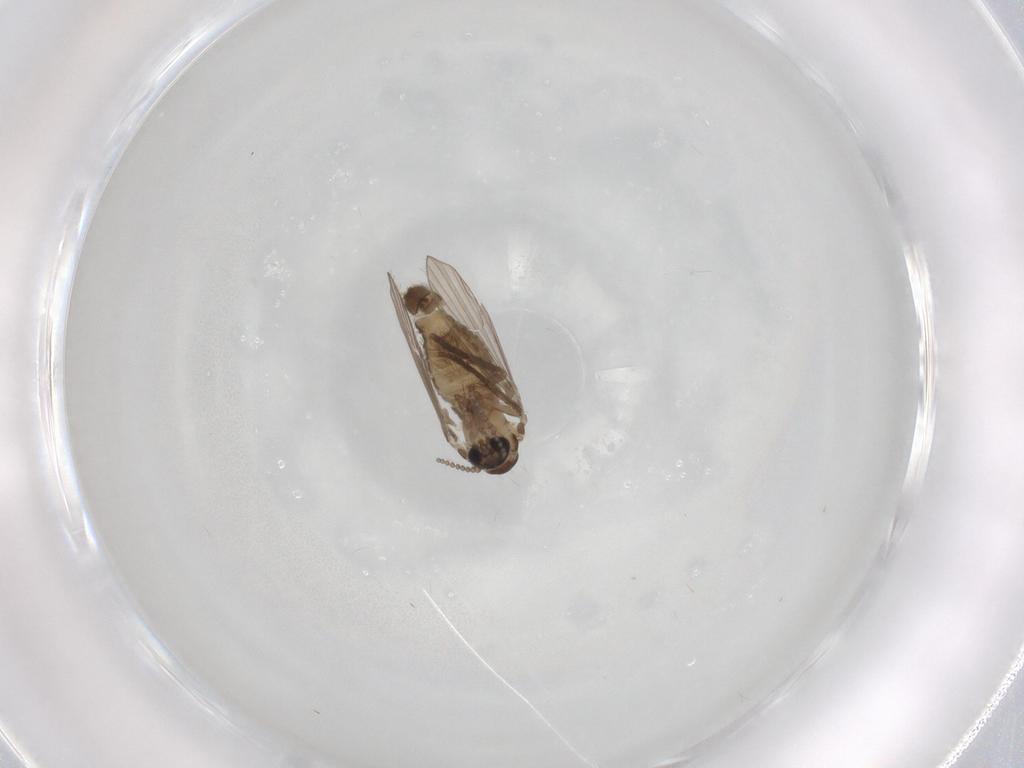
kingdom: Animalia
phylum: Arthropoda
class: Insecta
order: Diptera
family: Psychodidae
